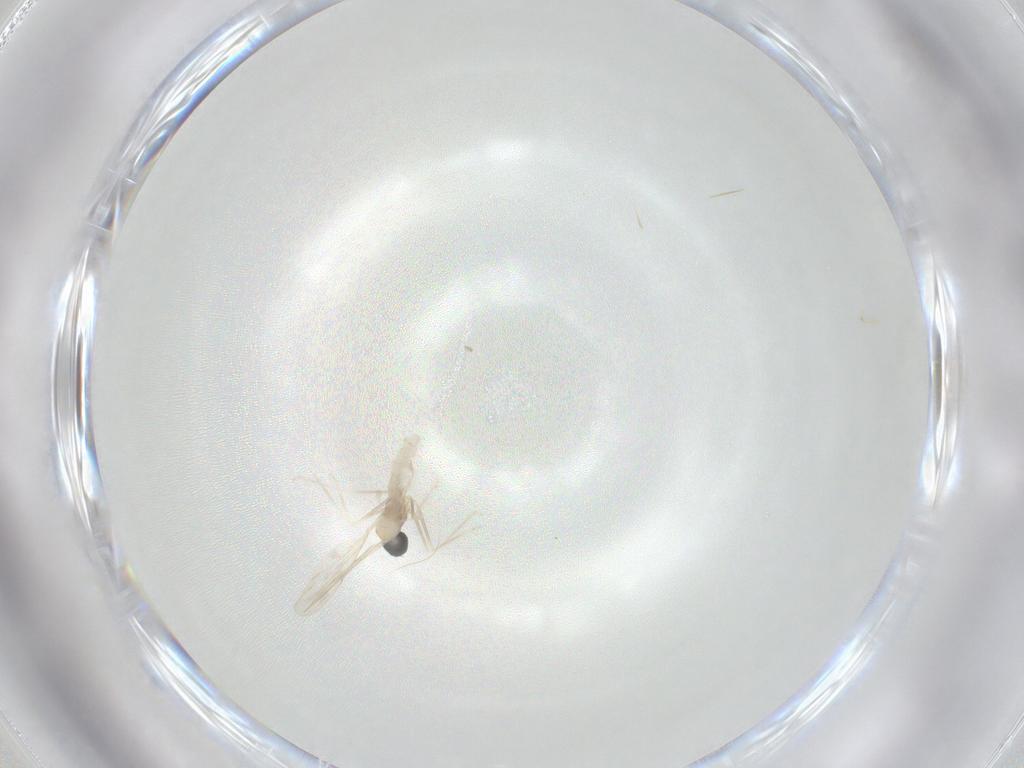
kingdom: Animalia
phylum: Arthropoda
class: Insecta
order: Diptera
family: Cecidomyiidae
